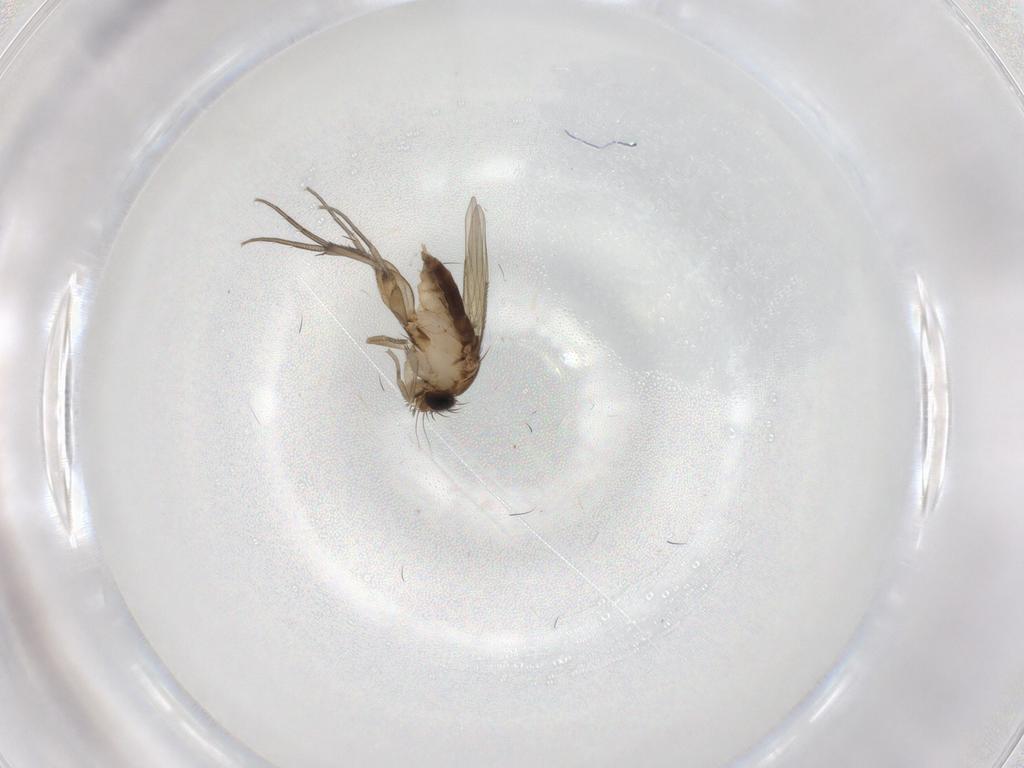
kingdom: Animalia
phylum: Arthropoda
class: Insecta
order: Diptera
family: Phoridae
